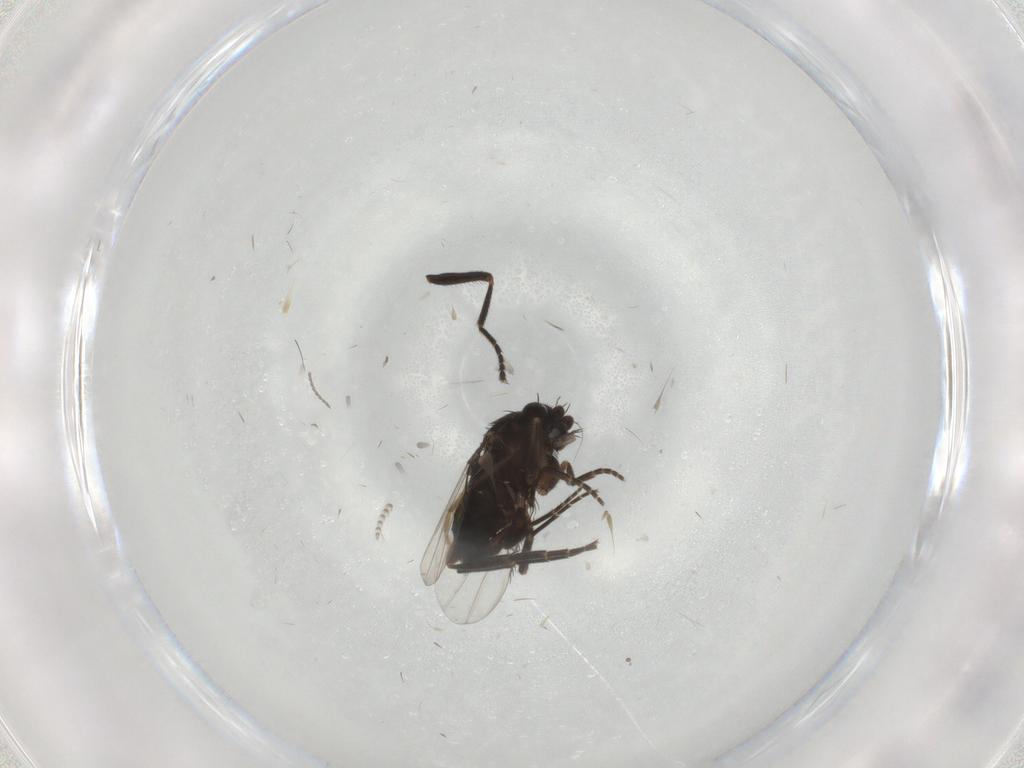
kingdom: Animalia
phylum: Arthropoda
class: Insecta
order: Diptera
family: Phoridae
